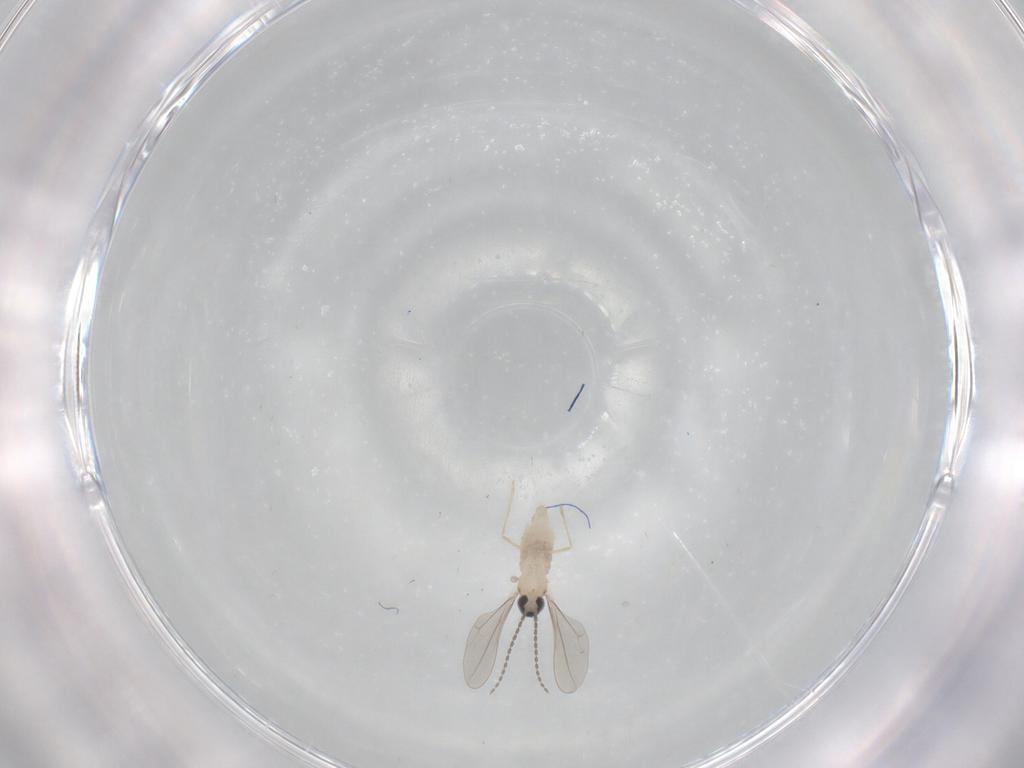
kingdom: Animalia
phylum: Arthropoda
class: Insecta
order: Diptera
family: Cecidomyiidae
